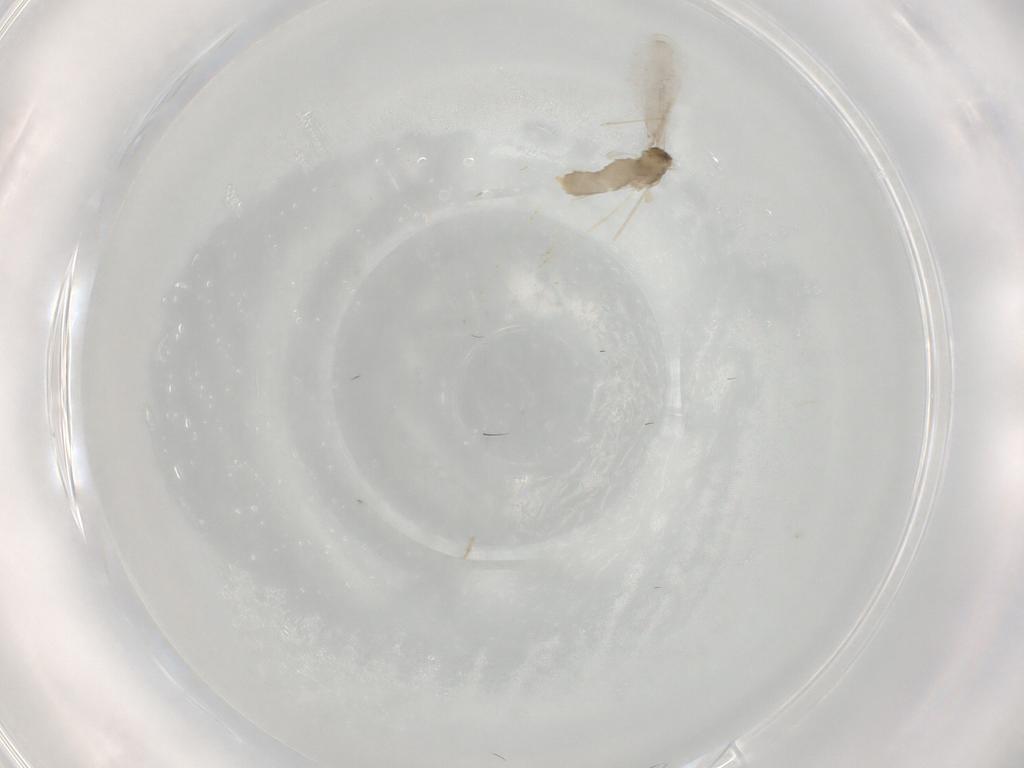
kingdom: Animalia
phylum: Arthropoda
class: Insecta
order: Diptera
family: Cecidomyiidae
